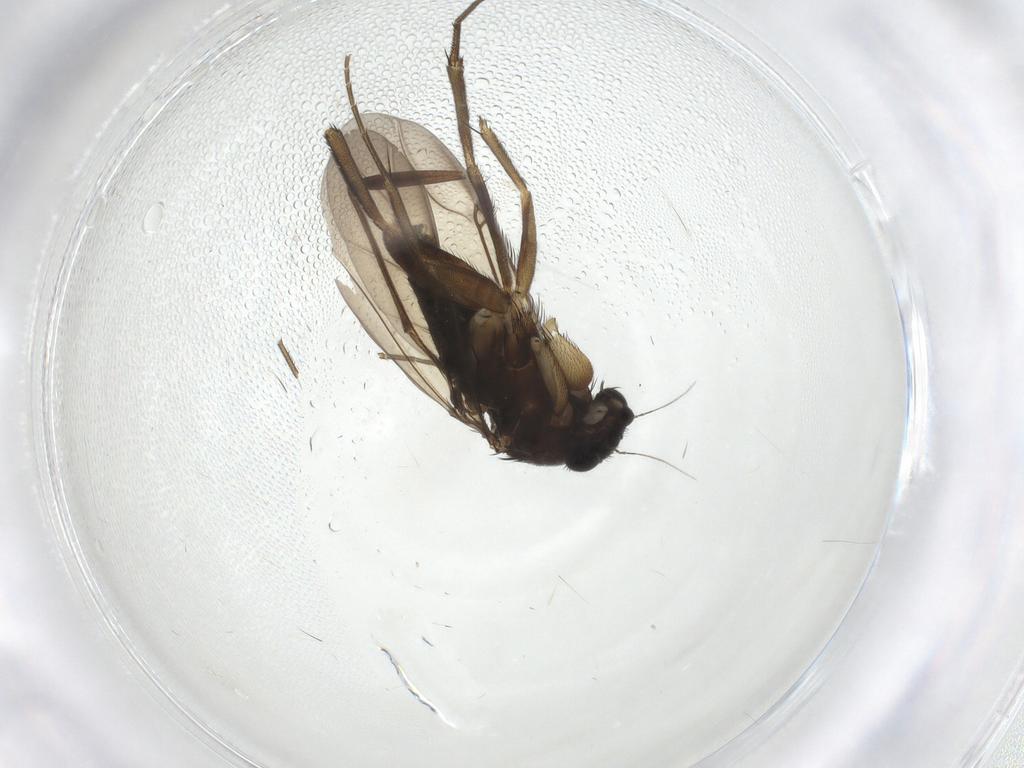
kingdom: Animalia
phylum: Arthropoda
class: Insecta
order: Diptera
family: Phoridae
